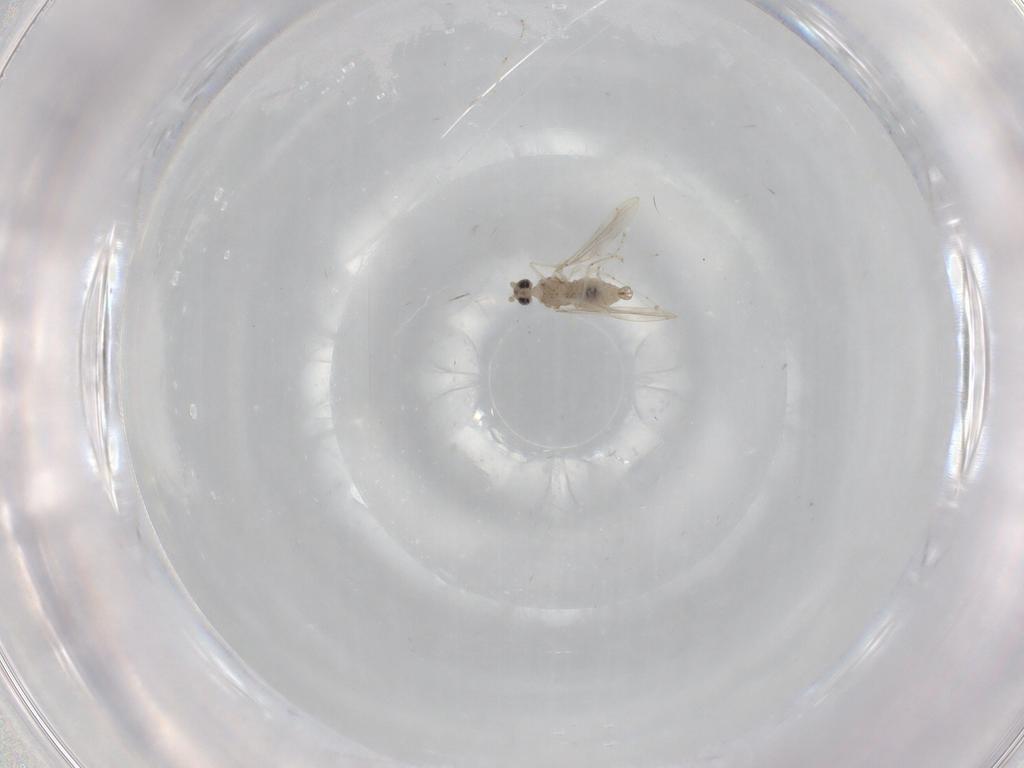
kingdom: Animalia
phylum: Arthropoda
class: Insecta
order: Diptera
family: Cecidomyiidae
